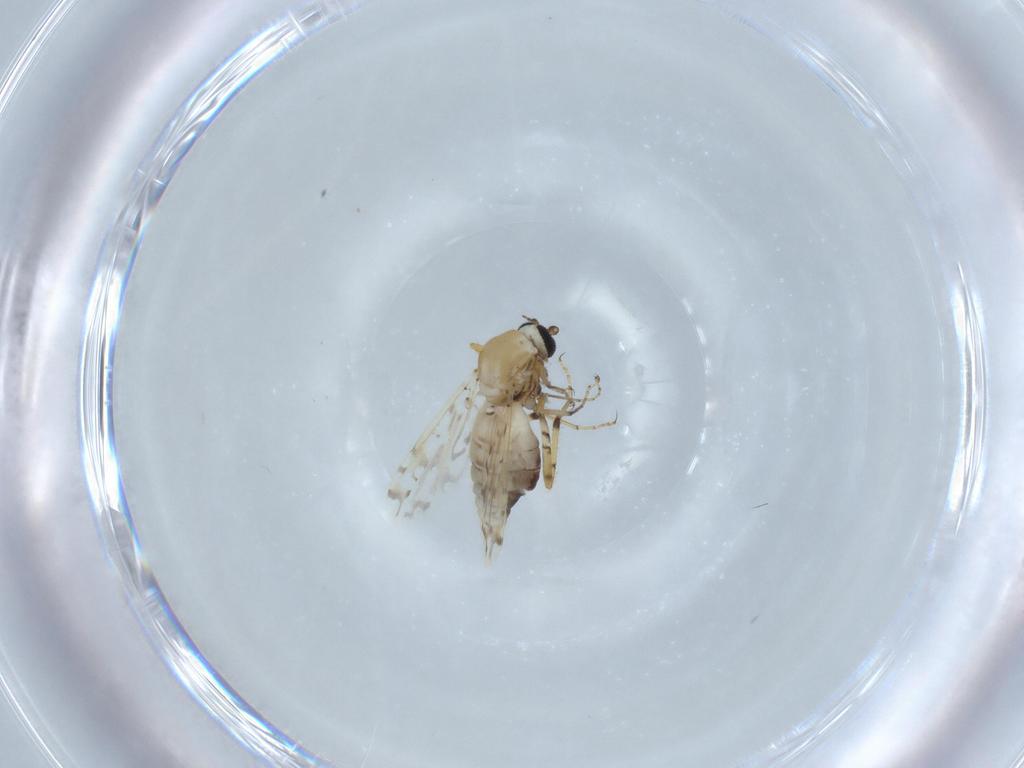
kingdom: Animalia
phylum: Arthropoda
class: Insecta
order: Diptera
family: Ceratopogonidae
